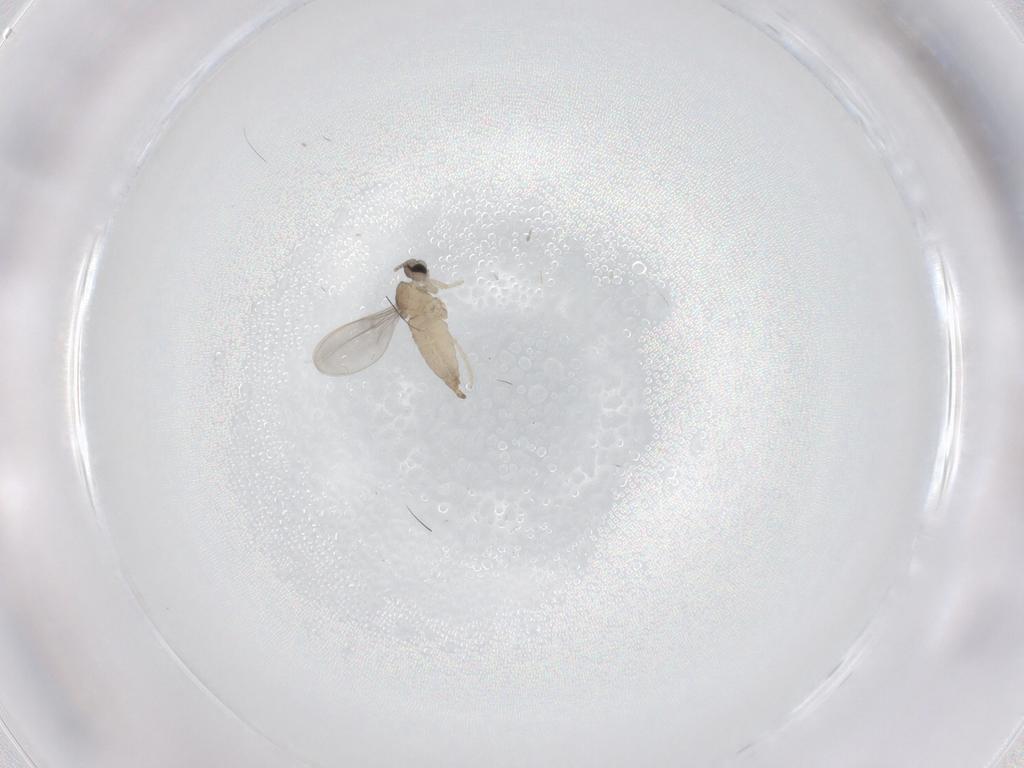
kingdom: Animalia
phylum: Arthropoda
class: Insecta
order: Diptera
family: Cecidomyiidae
